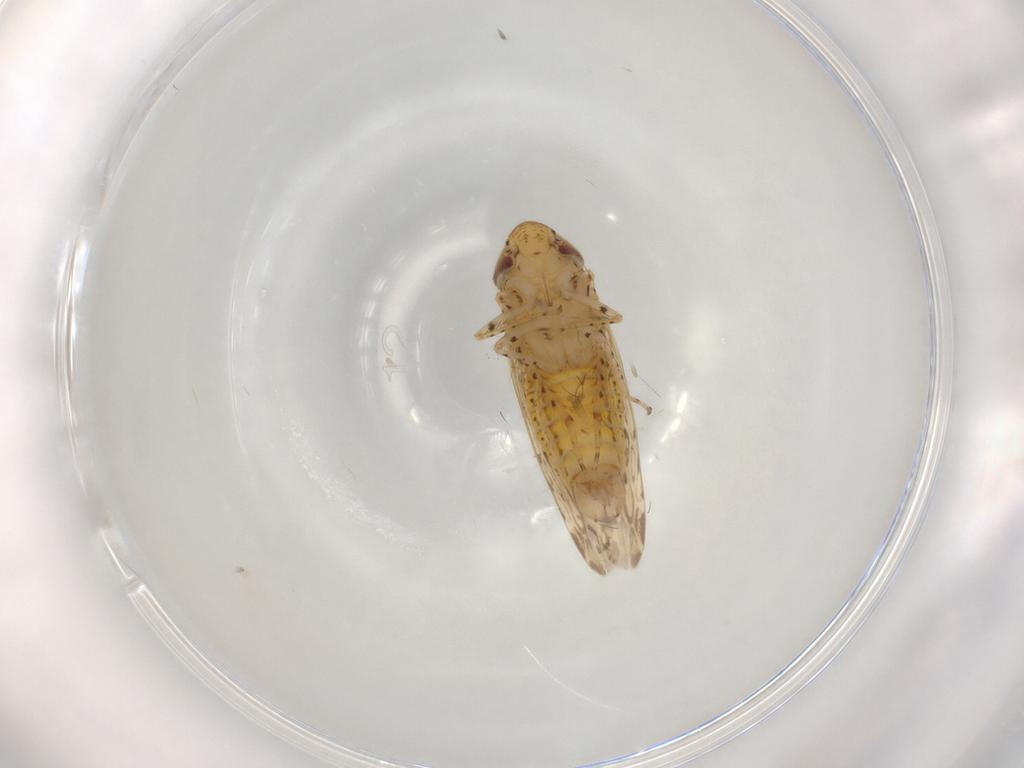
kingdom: Animalia
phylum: Arthropoda
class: Insecta
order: Hemiptera
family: Cicadellidae
